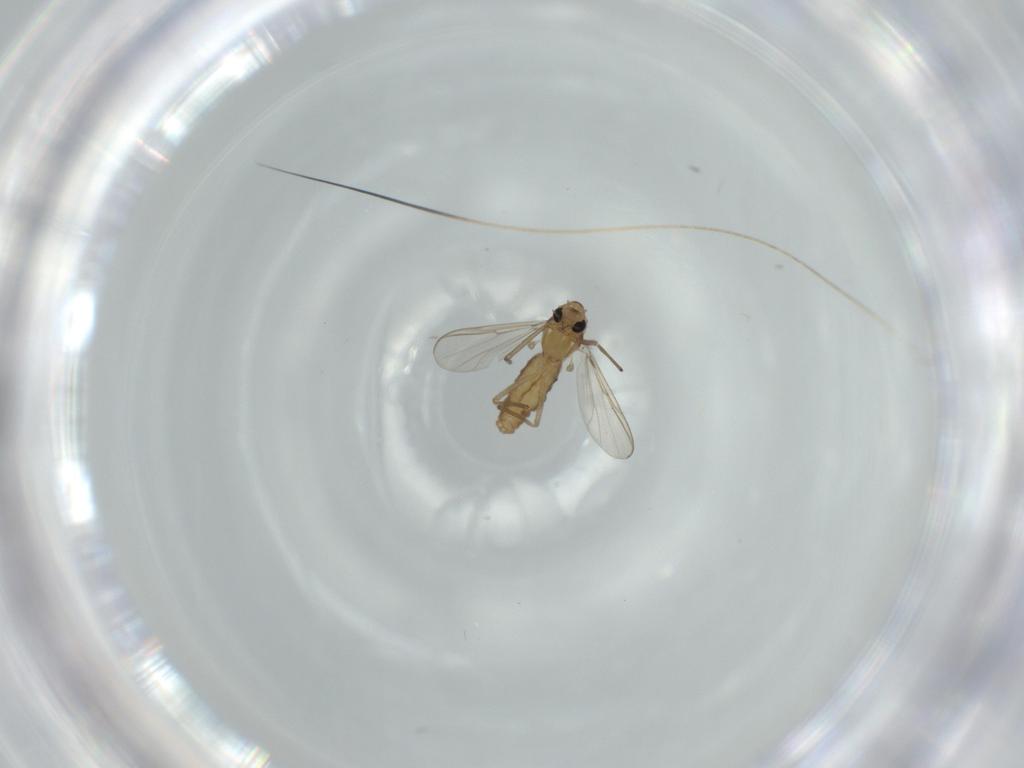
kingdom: Animalia
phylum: Arthropoda
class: Insecta
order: Diptera
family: Chironomidae
